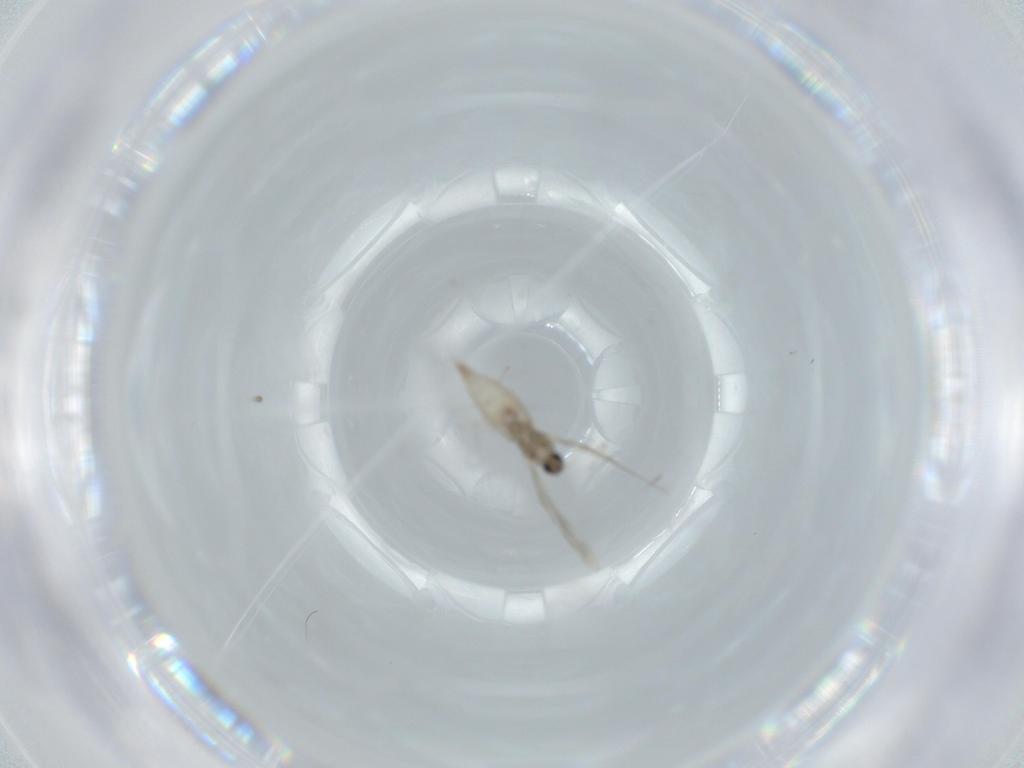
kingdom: Animalia
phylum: Arthropoda
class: Insecta
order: Diptera
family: Cecidomyiidae
